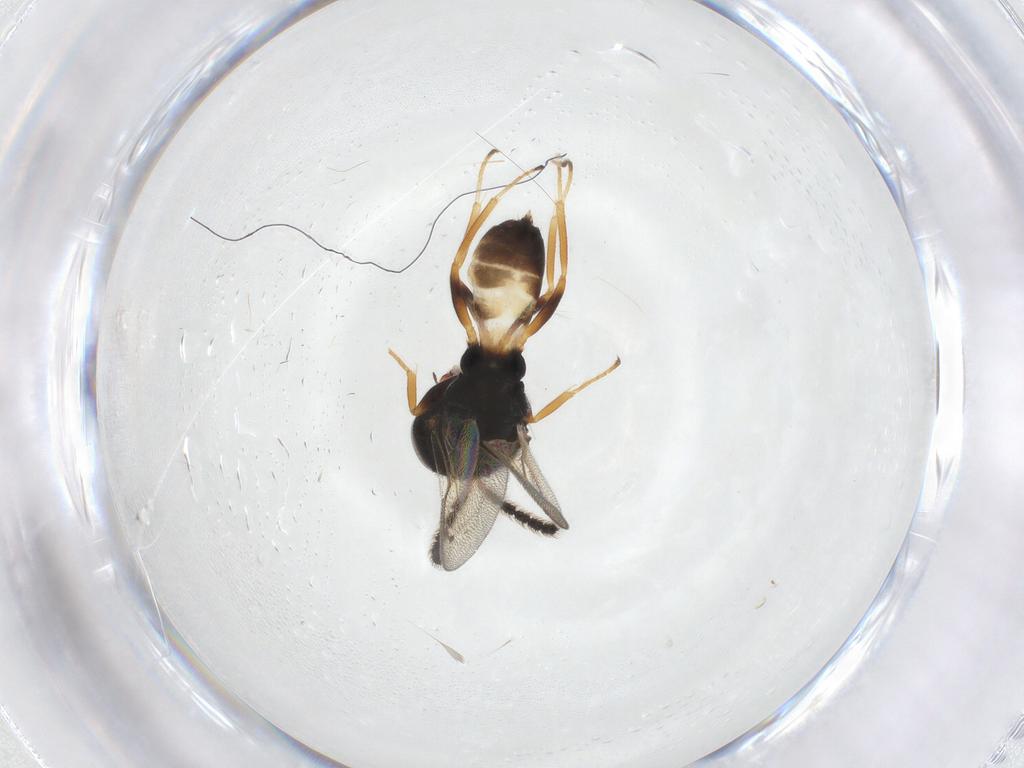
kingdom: Animalia
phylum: Arthropoda
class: Insecta
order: Hymenoptera
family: Pteromalidae
